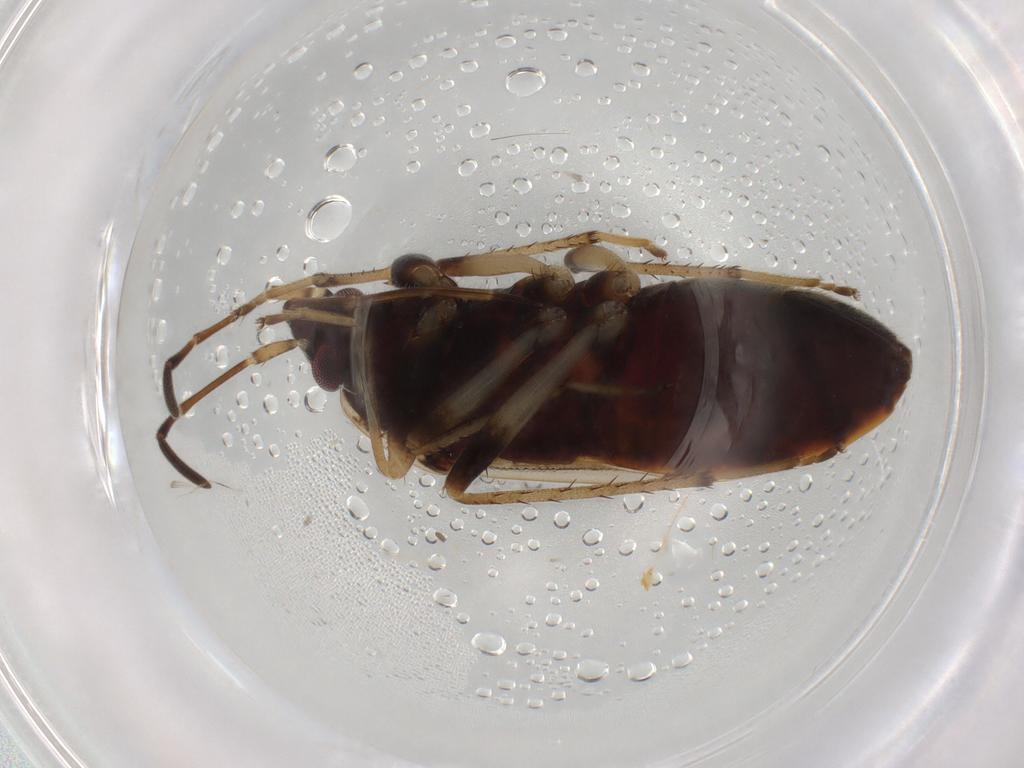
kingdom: Animalia
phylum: Arthropoda
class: Insecta
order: Hemiptera
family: Rhyparochromidae
